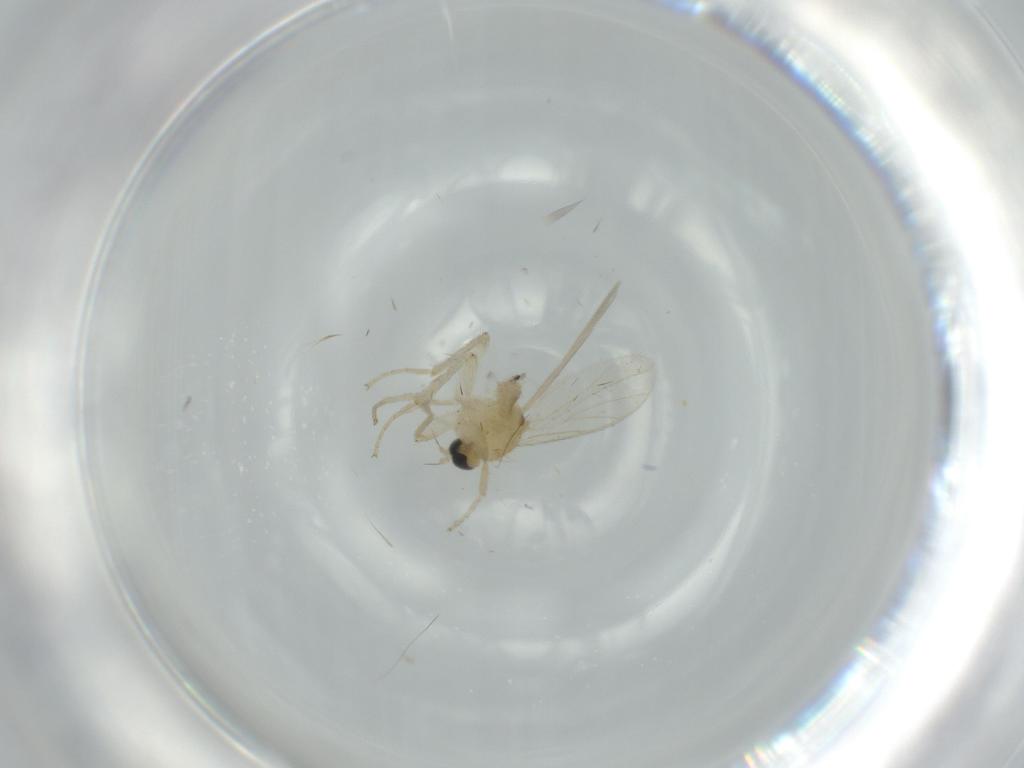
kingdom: Animalia
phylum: Arthropoda
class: Insecta
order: Diptera
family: Hybotidae
